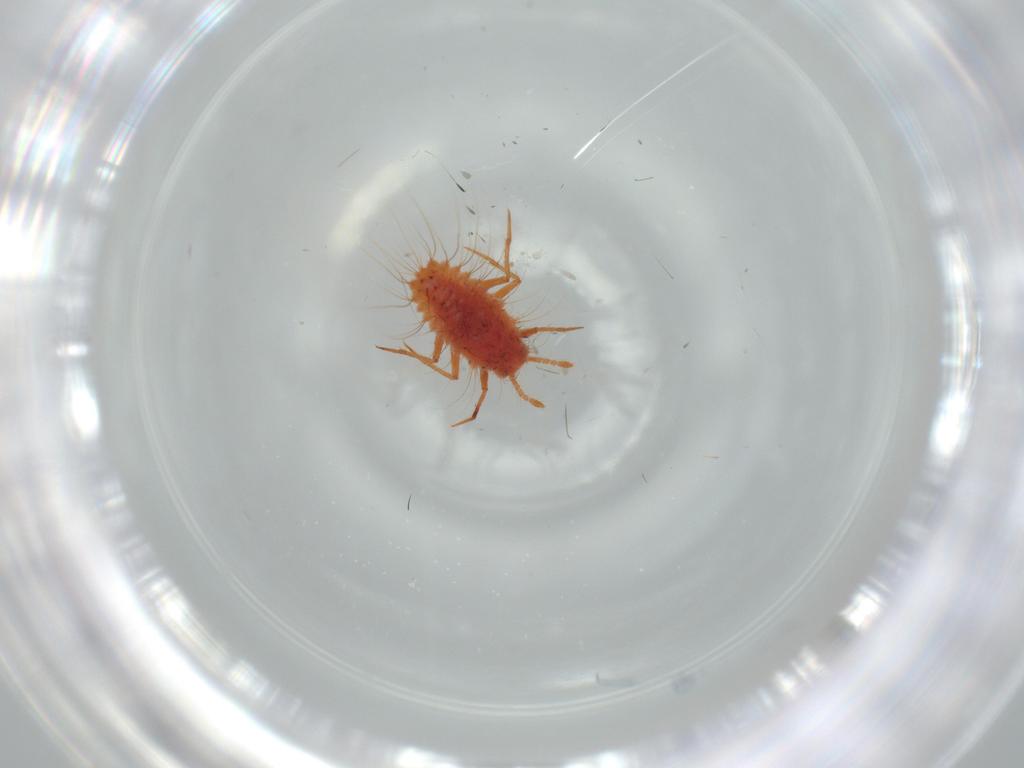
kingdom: Animalia
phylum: Arthropoda
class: Insecta
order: Hemiptera
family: Monophlebidae
